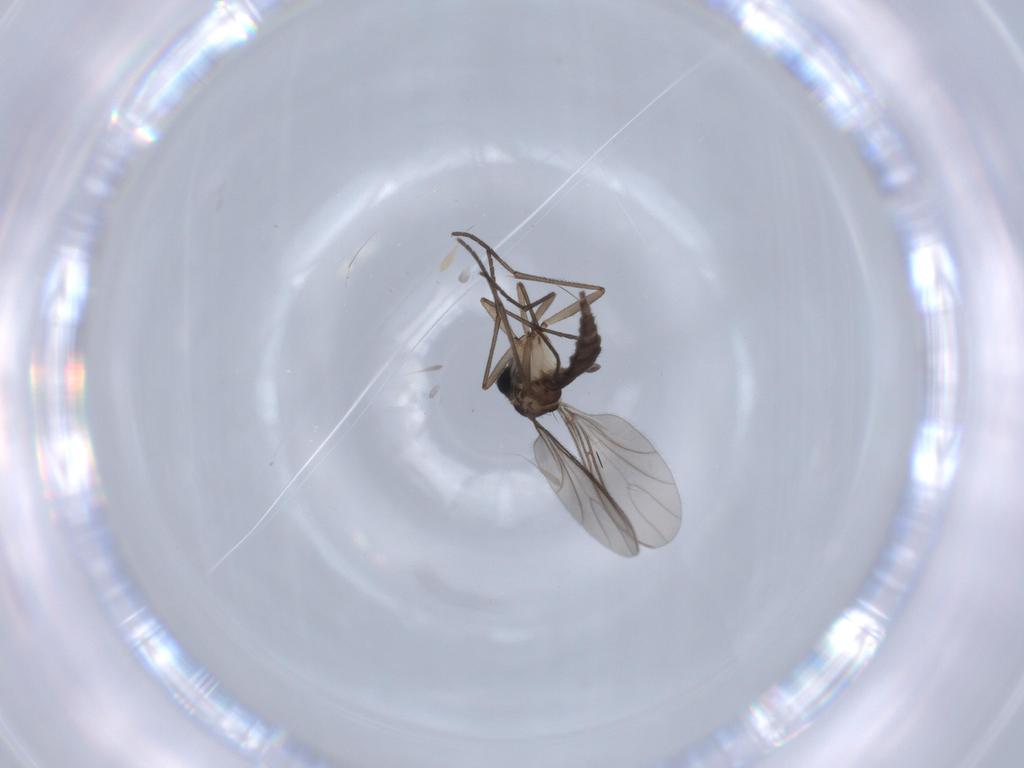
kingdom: Animalia
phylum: Arthropoda
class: Insecta
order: Diptera
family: Sciaridae
